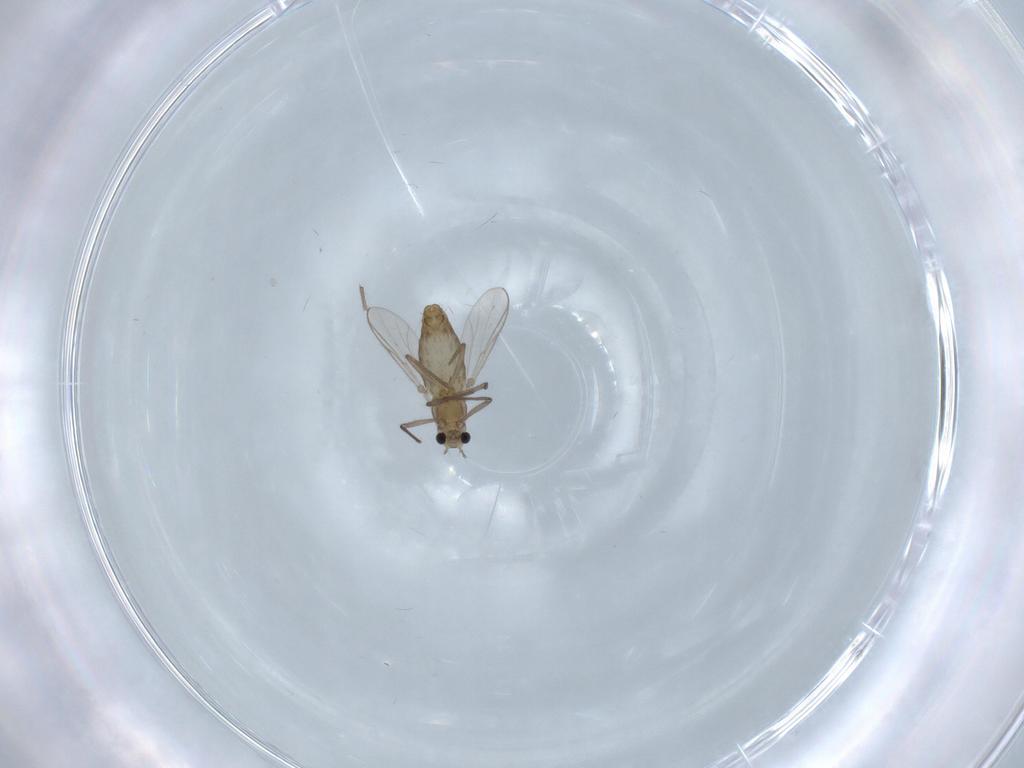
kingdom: Animalia
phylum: Arthropoda
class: Insecta
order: Diptera
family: Chironomidae
